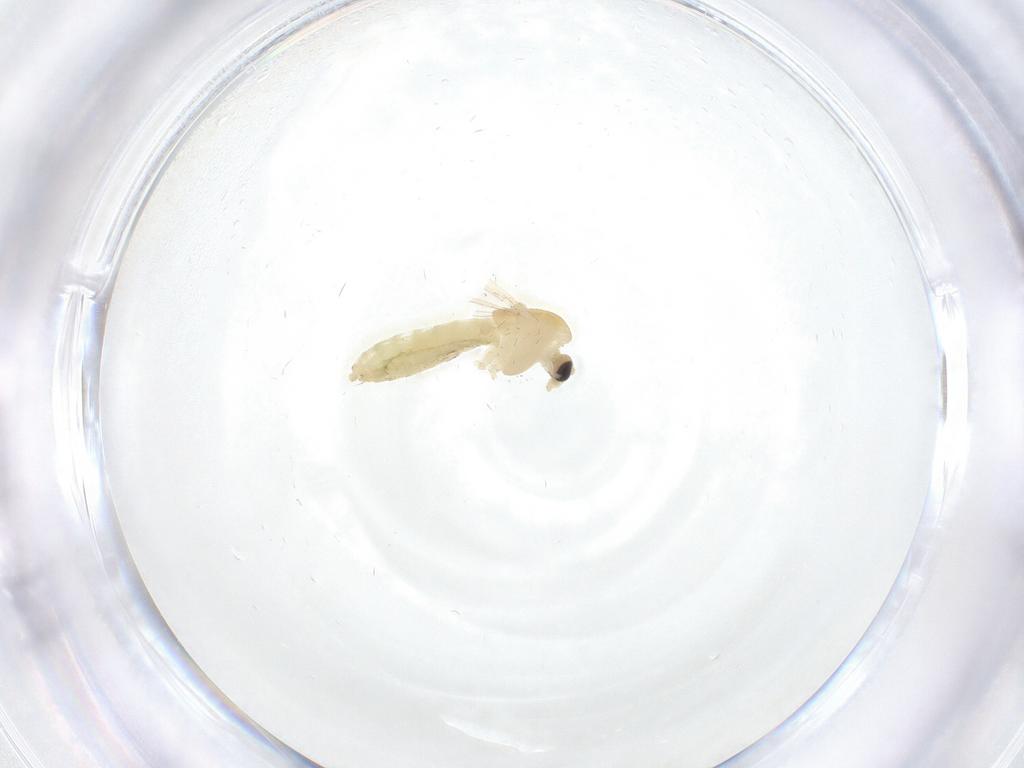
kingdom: Animalia
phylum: Arthropoda
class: Insecta
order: Diptera
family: Chironomidae
